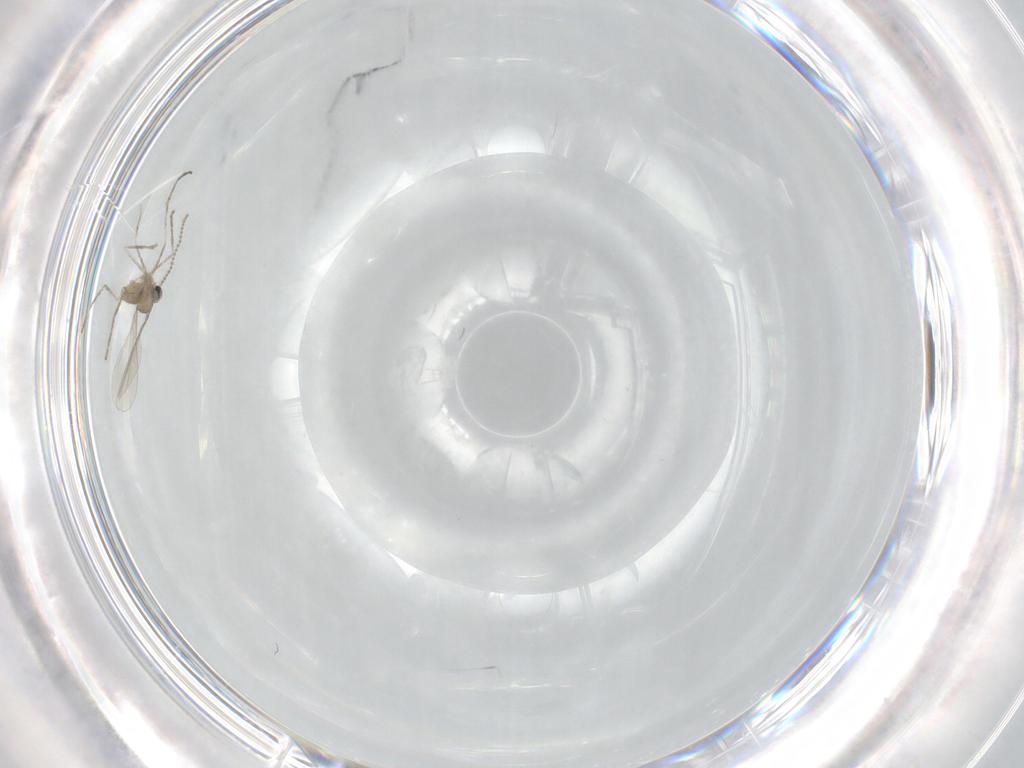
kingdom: Animalia
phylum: Arthropoda
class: Insecta
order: Diptera
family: Cecidomyiidae
